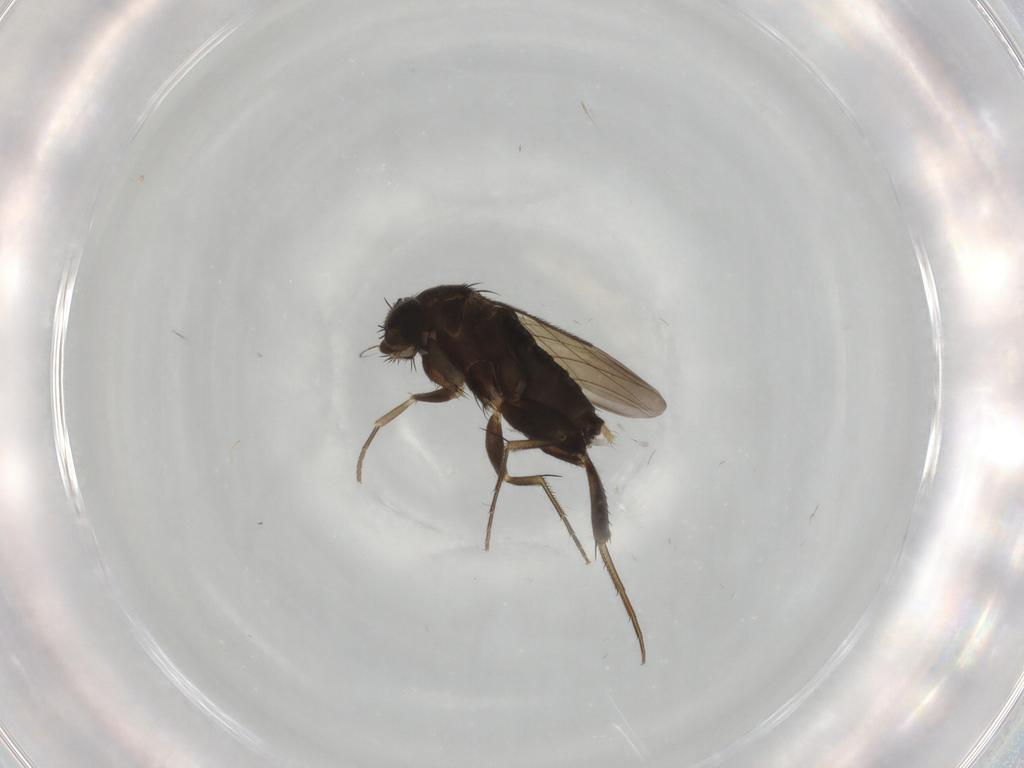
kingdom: Animalia
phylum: Arthropoda
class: Insecta
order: Diptera
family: Phoridae
